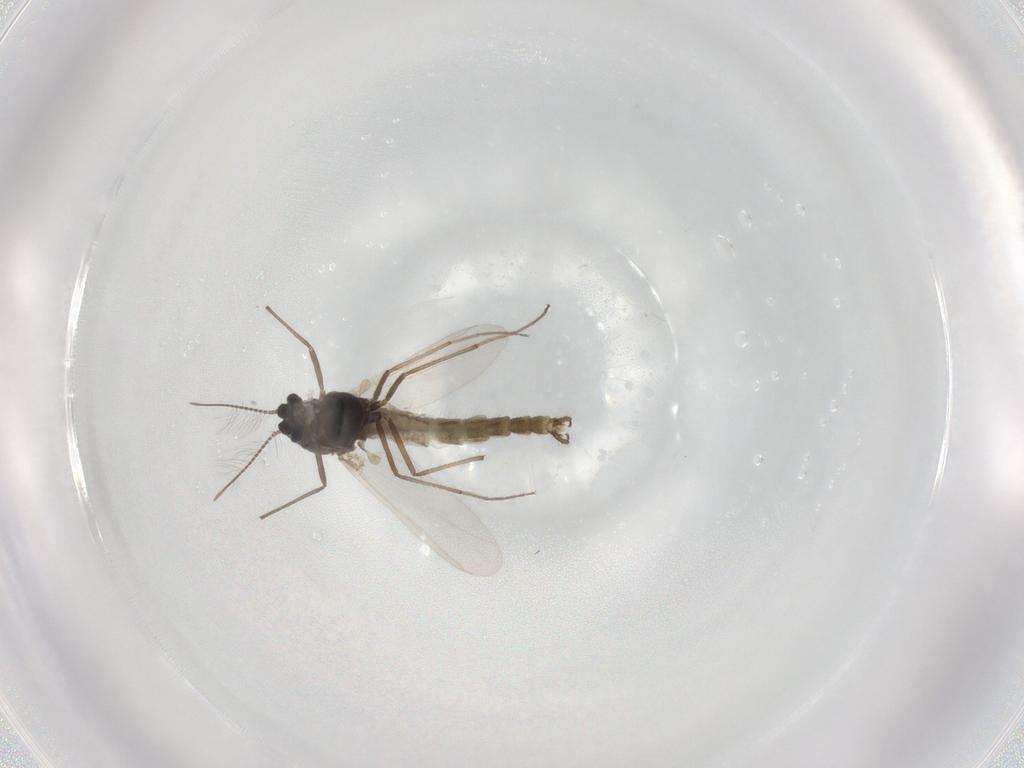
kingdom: Animalia
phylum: Arthropoda
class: Insecta
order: Diptera
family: Chironomidae
